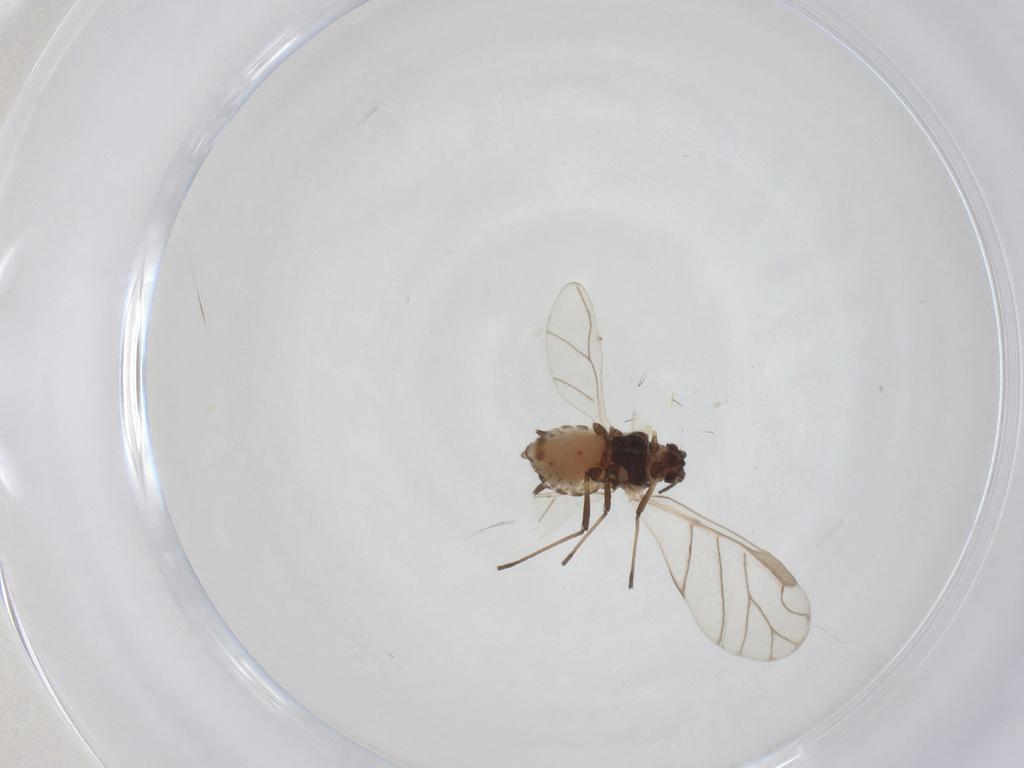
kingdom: Animalia
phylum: Arthropoda
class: Insecta
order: Hemiptera
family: Aphididae
